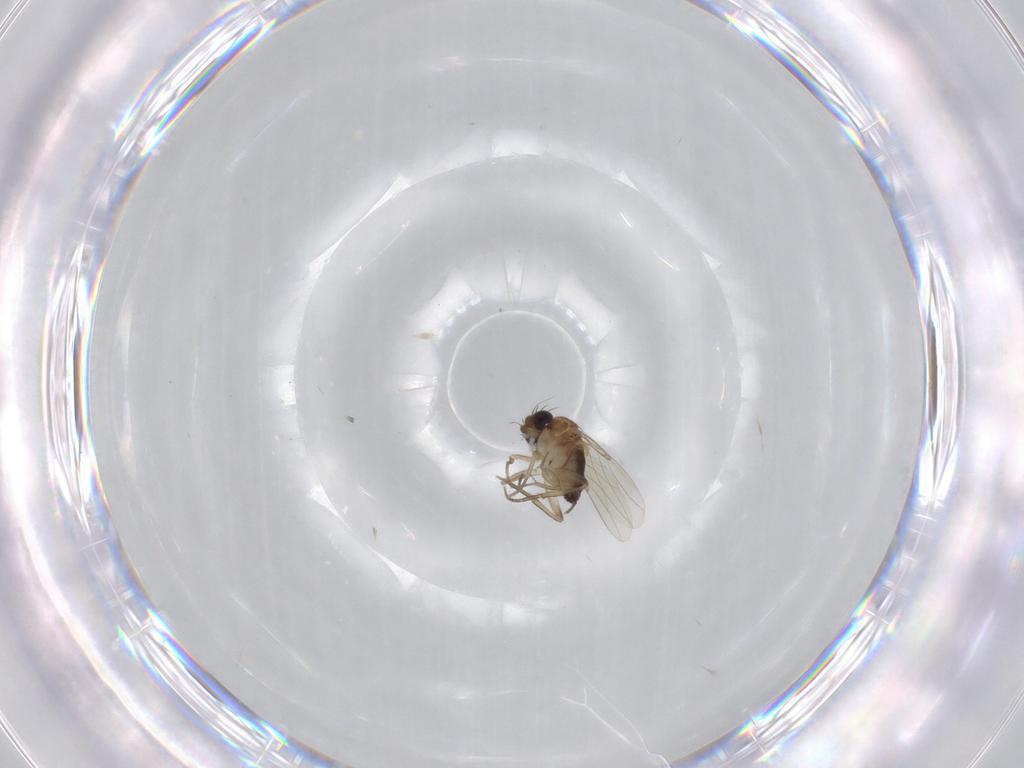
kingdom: Animalia
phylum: Arthropoda
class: Insecta
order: Diptera
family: Phoridae
